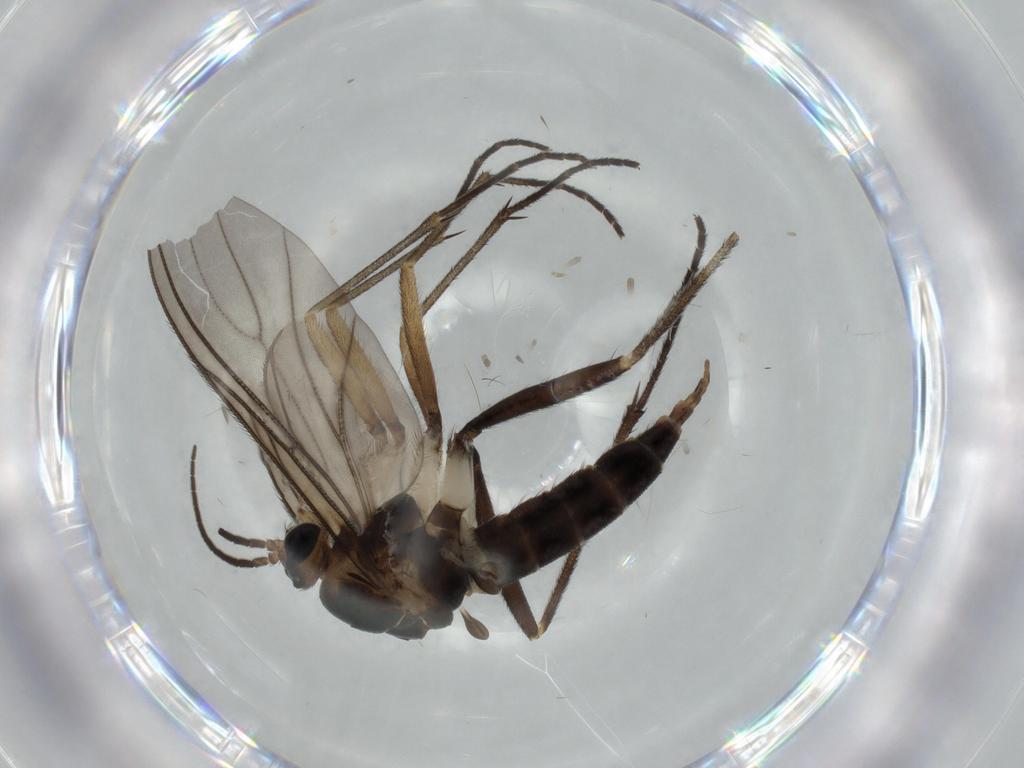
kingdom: Animalia
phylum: Arthropoda
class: Insecta
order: Diptera
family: Sciaridae
